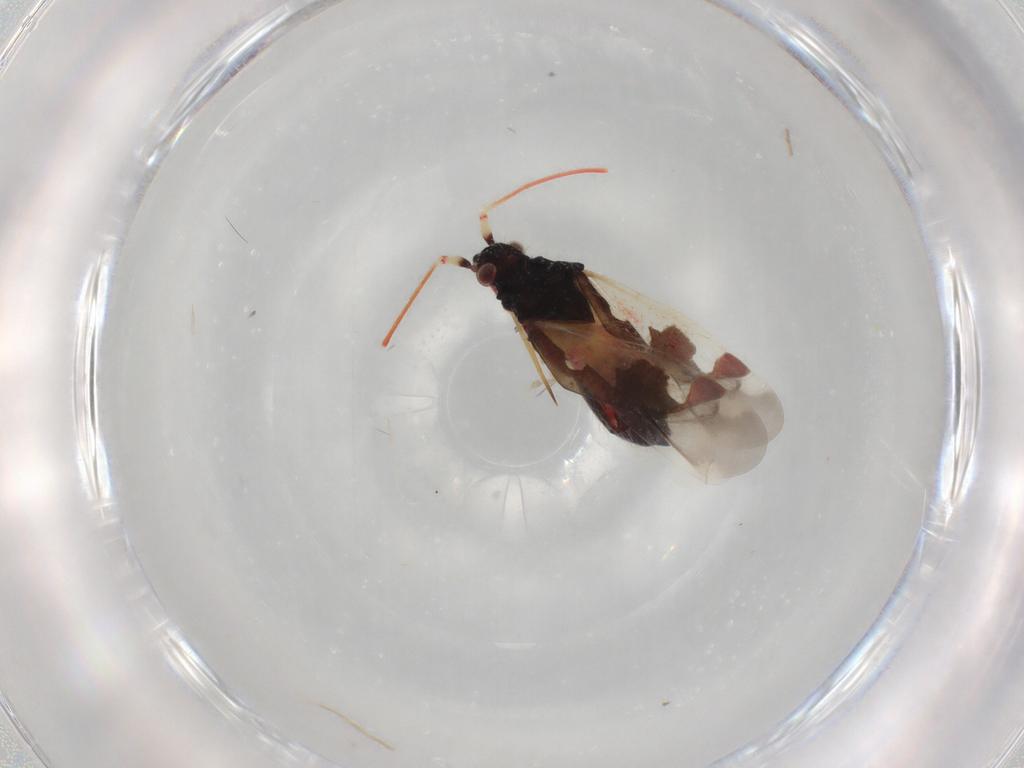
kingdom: Animalia
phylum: Arthropoda
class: Insecta
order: Hemiptera
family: Miridae
